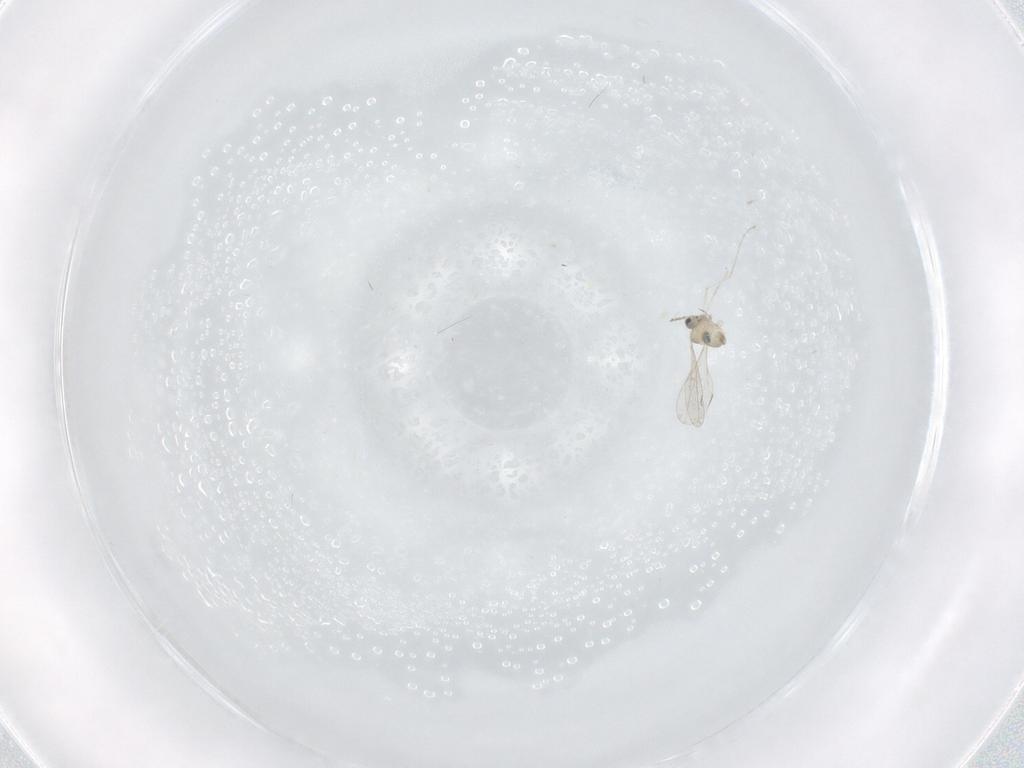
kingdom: Animalia
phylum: Arthropoda
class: Insecta
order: Diptera
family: Cecidomyiidae
